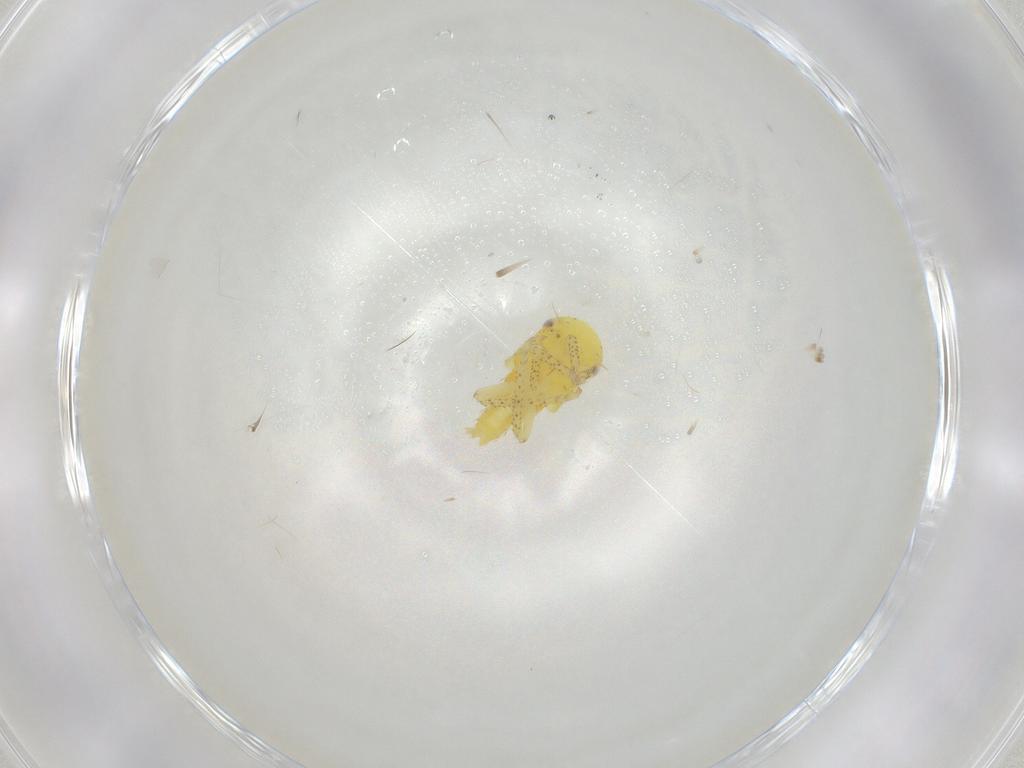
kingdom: Animalia
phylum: Arthropoda
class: Insecta
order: Hemiptera
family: Delphacidae
